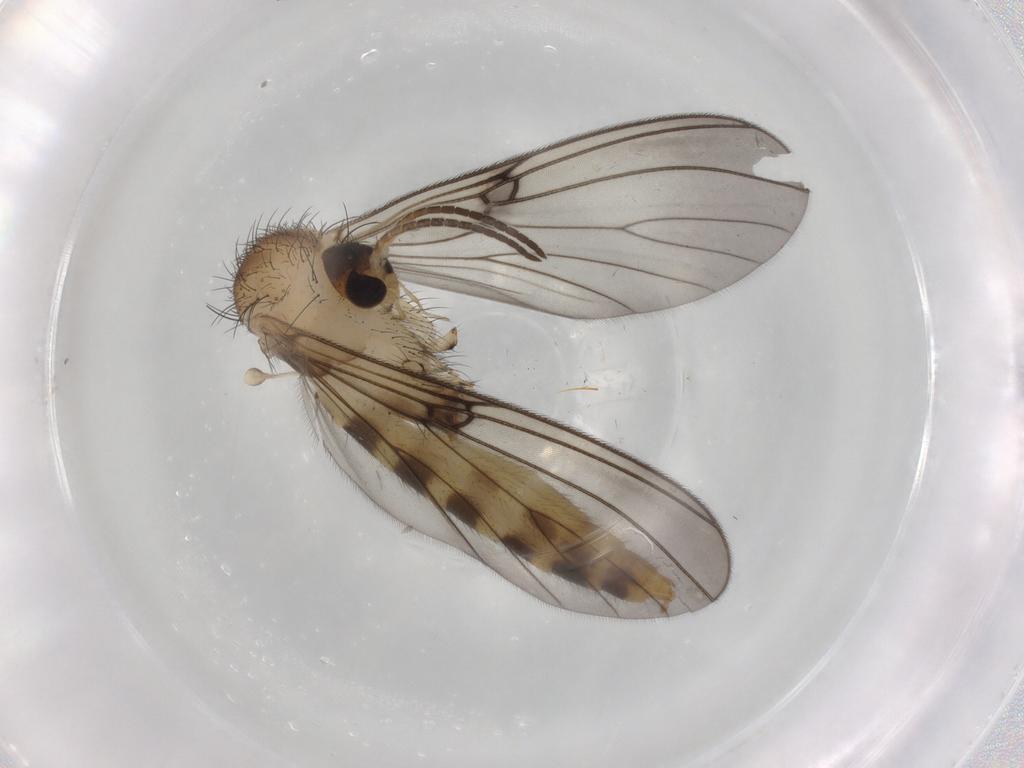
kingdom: Animalia
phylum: Arthropoda
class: Insecta
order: Diptera
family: Mycetophilidae
